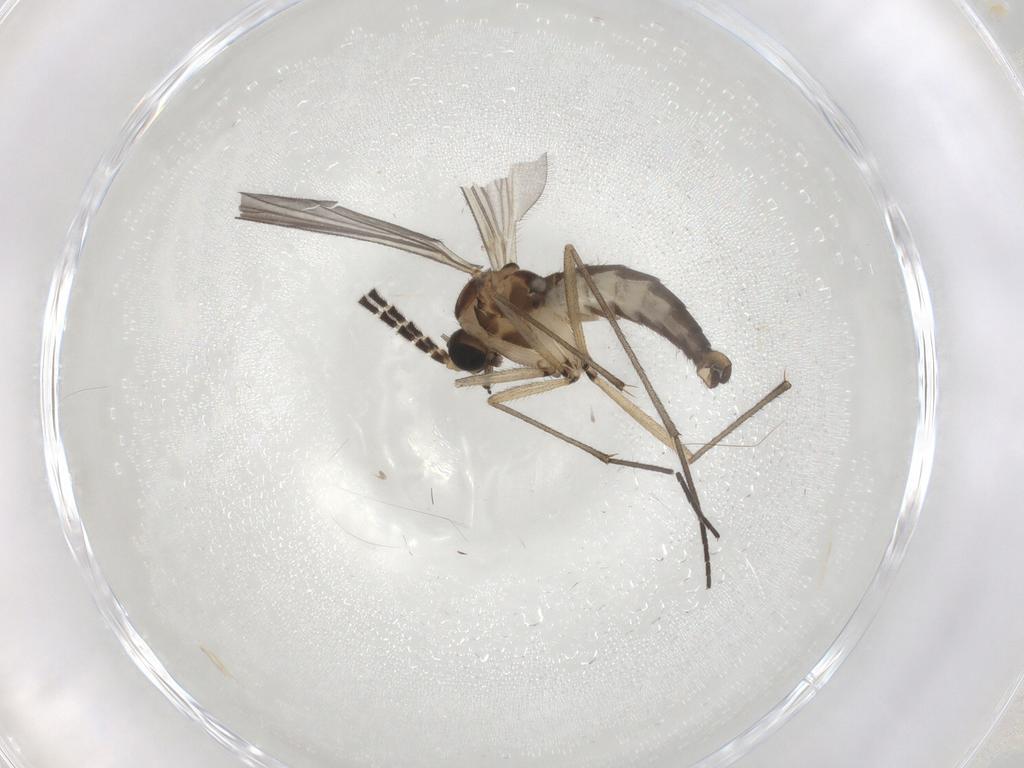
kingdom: Animalia
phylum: Arthropoda
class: Insecta
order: Diptera
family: Sciaridae
